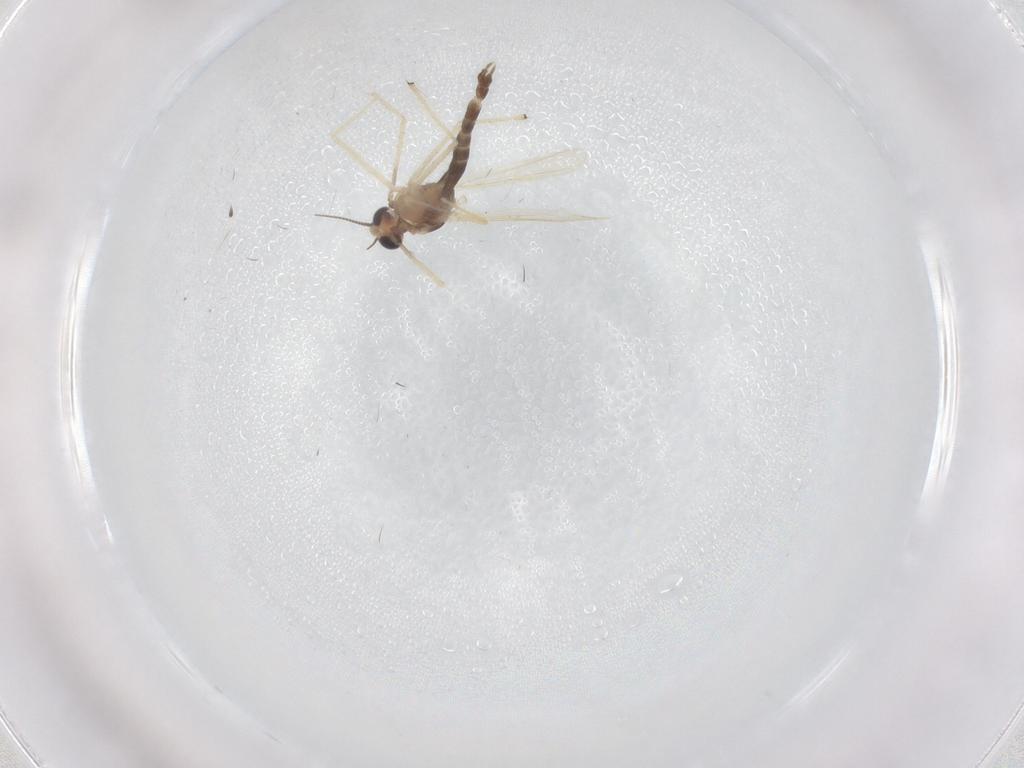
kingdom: Animalia
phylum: Arthropoda
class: Insecta
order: Diptera
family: Chironomidae
